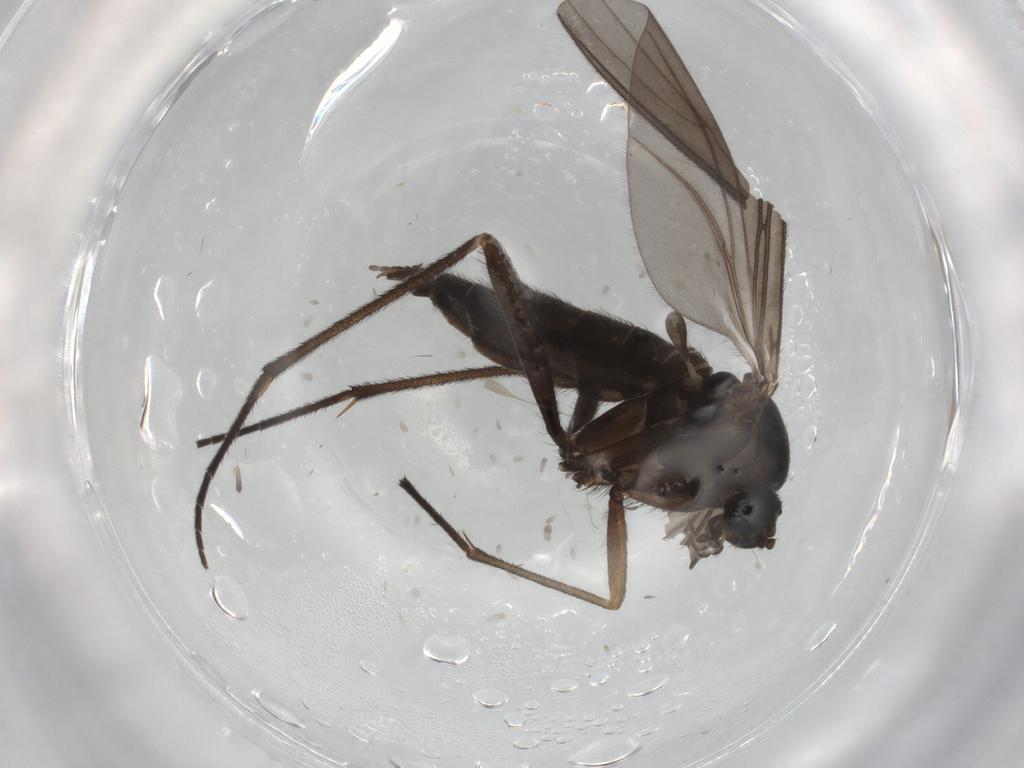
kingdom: Animalia
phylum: Arthropoda
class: Insecta
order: Diptera
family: Sciaridae
